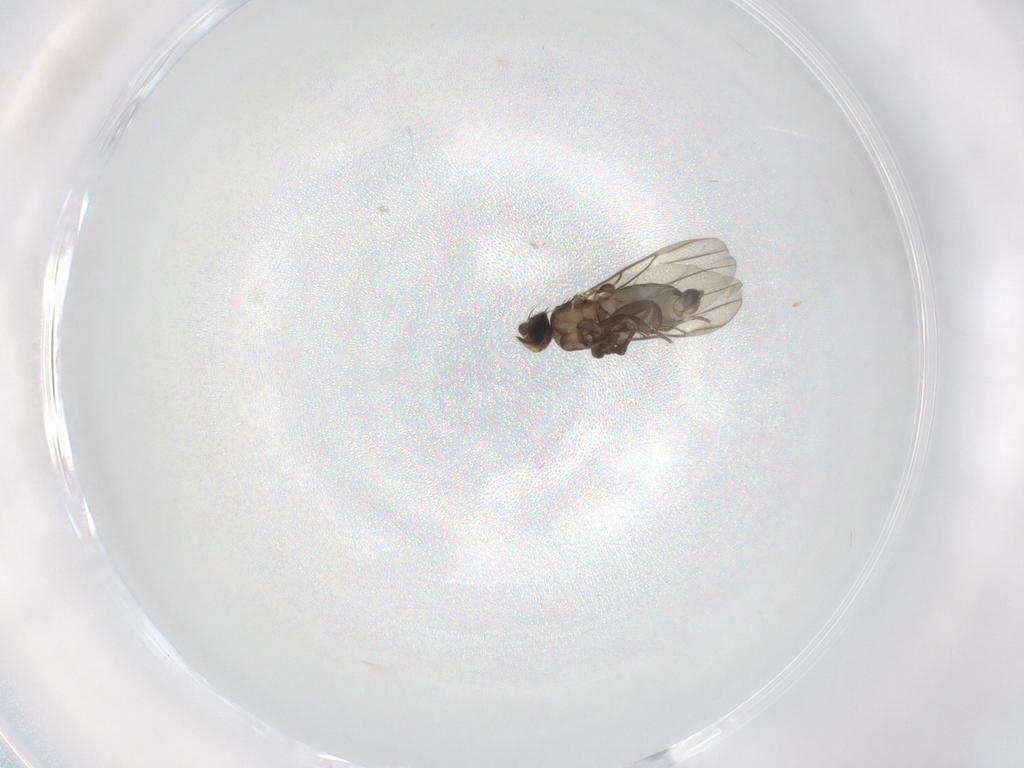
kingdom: Animalia
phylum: Arthropoda
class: Insecta
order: Diptera
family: Phoridae
